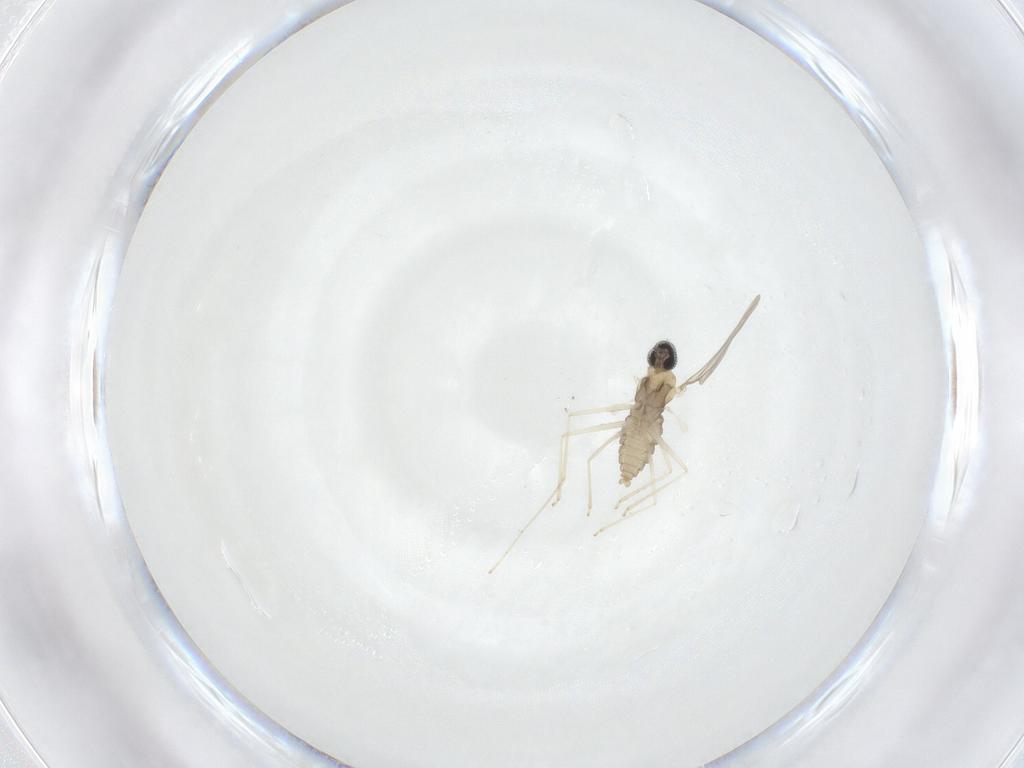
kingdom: Animalia
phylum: Arthropoda
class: Insecta
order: Diptera
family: Cecidomyiidae
